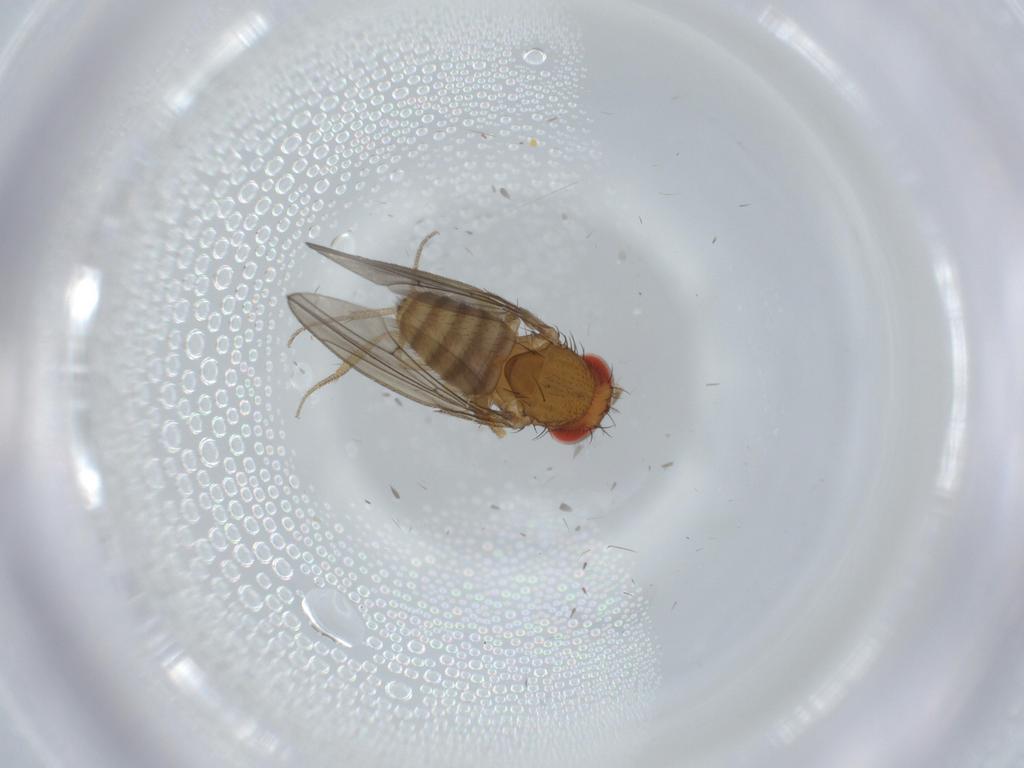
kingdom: Animalia
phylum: Arthropoda
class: Insecta
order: Diptera
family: Drosophilidae
